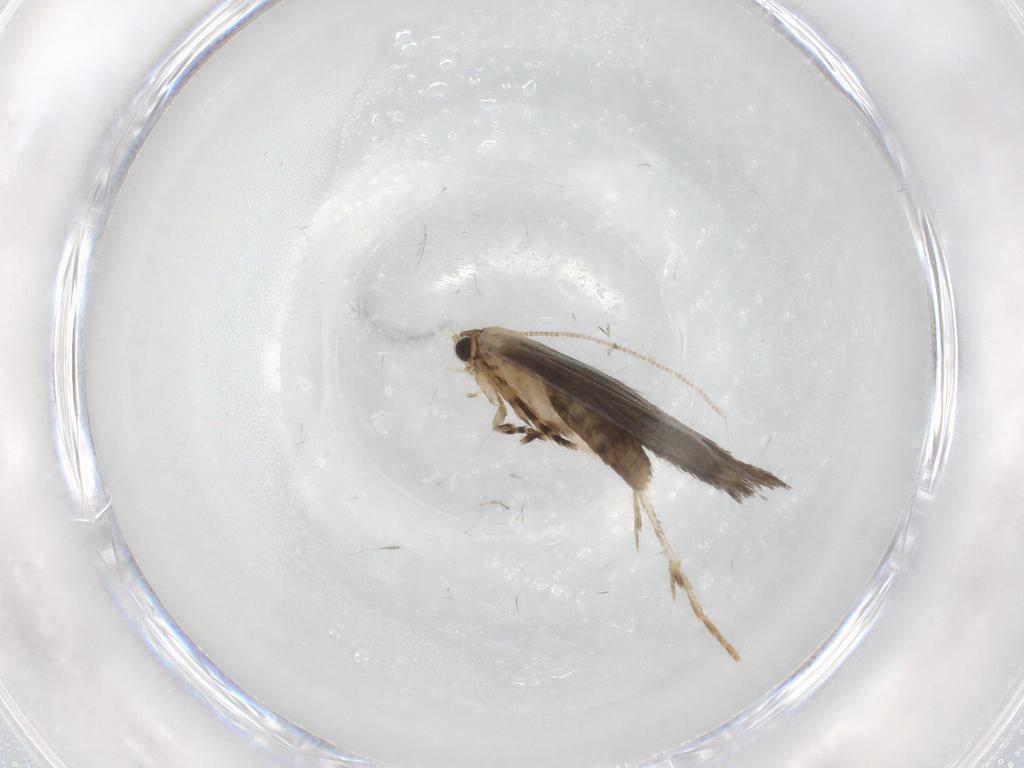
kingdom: Animalia
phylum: Arthropoda
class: Insecta
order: Lepidoptera
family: Tineidae
